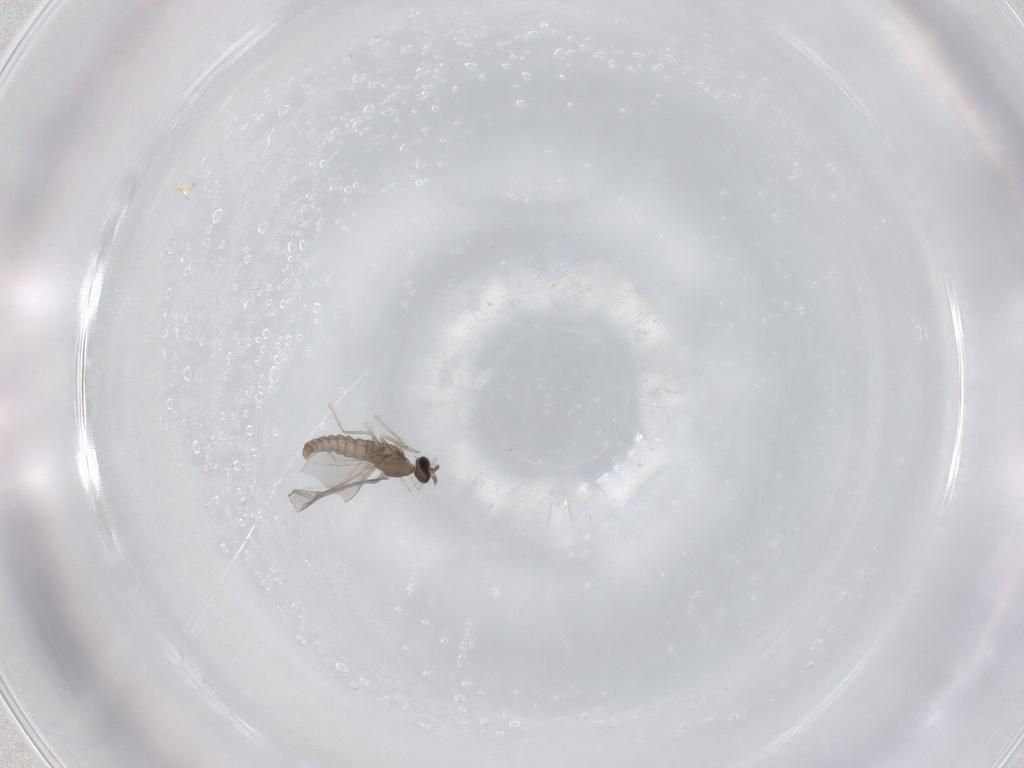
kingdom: Animalia
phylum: Arthropoda
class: Insecta
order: Diptera
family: Cecidomyiidae
